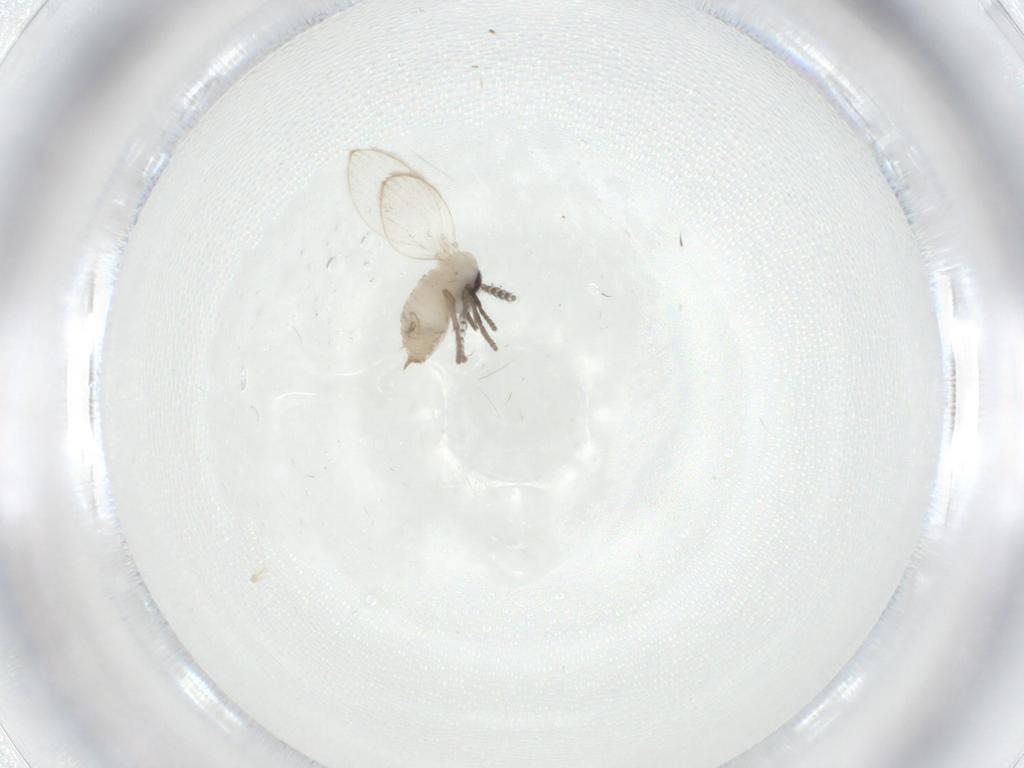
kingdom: Animalia
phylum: Arthropoda
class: Insecta
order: Diptera
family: Psychodidae
